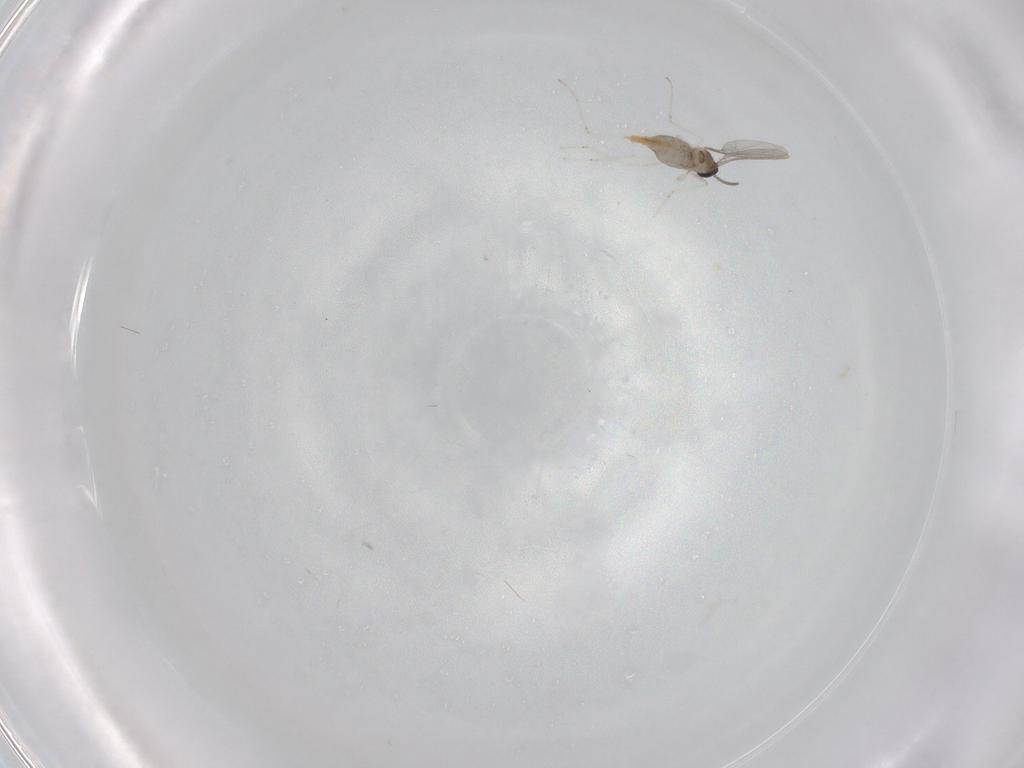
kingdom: Animalia
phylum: Arthropoda
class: Insecta
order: Diptera
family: Cecidomyiidae
